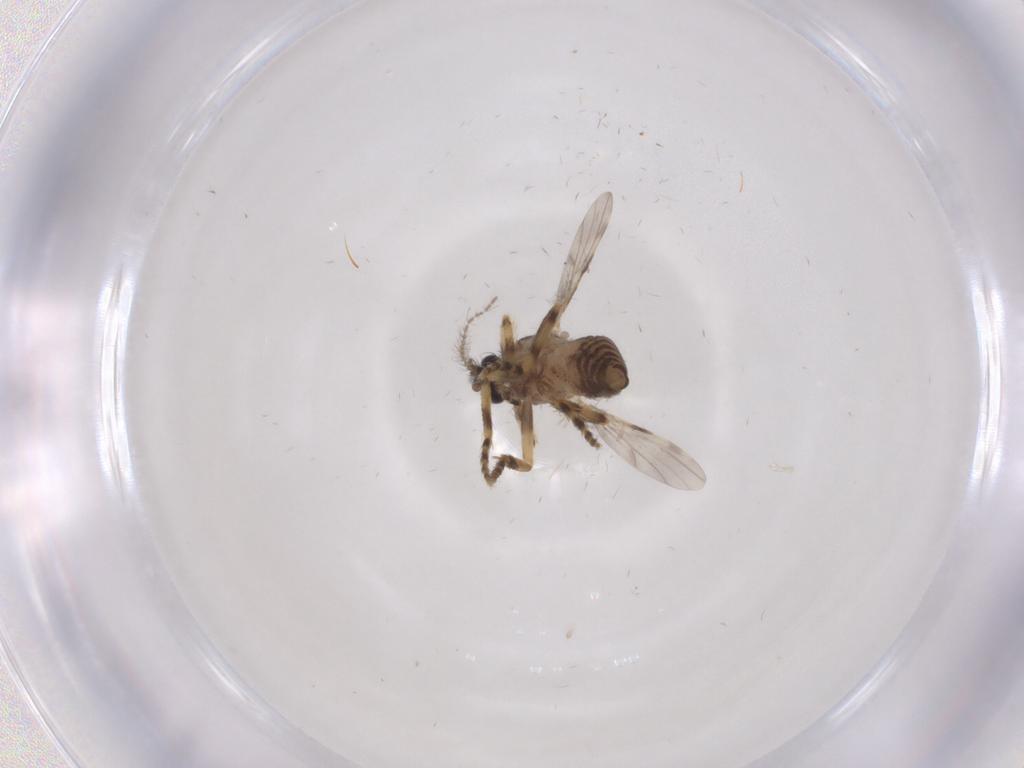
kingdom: Animalia
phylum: Arthropoda
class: Insecta
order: Diptera
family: Ceratopogonidae
